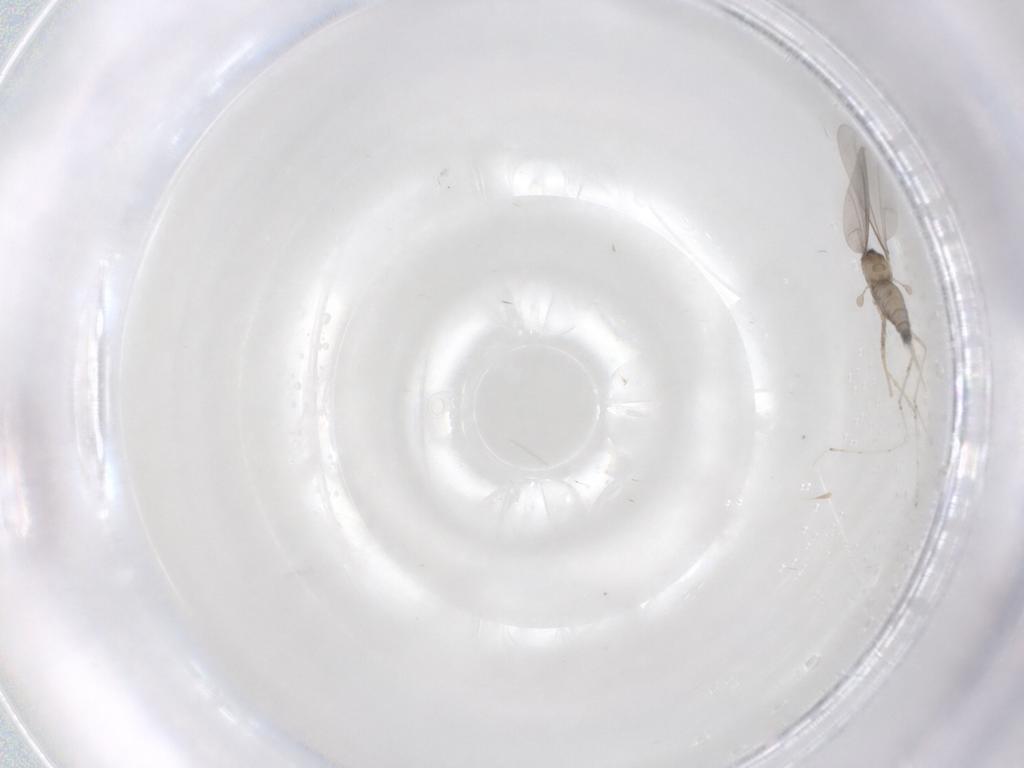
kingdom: Animalia
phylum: Arthropoda
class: Insecta
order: Diptera
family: Cecidomyiidae
